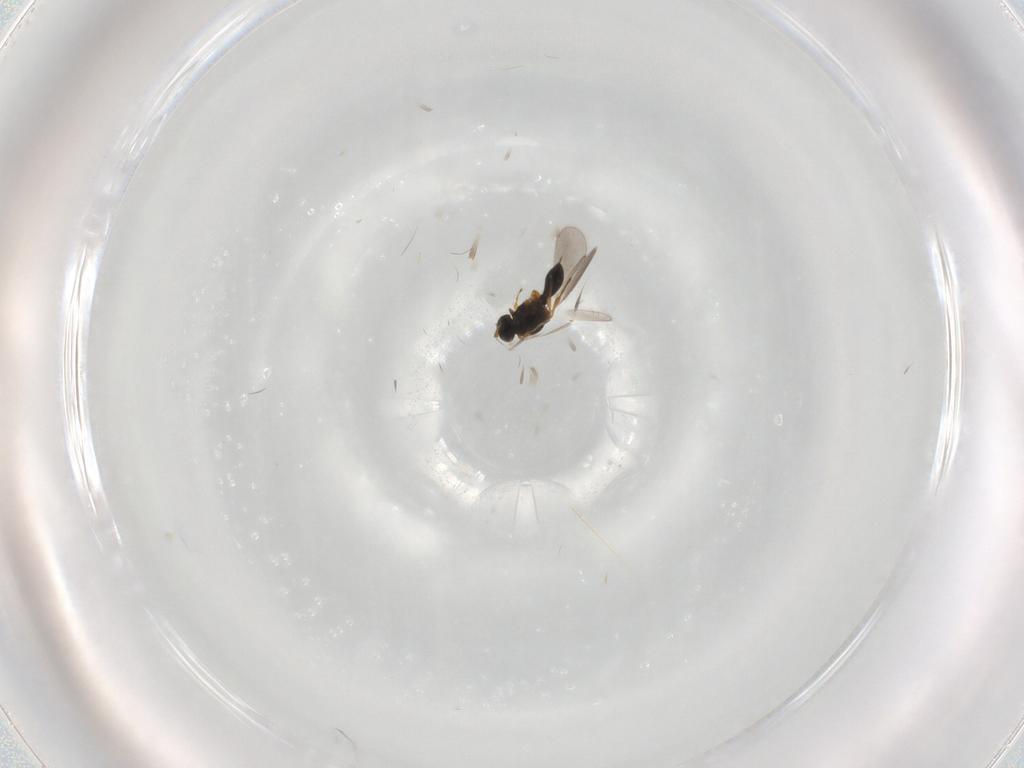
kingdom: Animalia
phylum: Arthropoda
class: Insecta
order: Hymenoptera
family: Platygastridae
